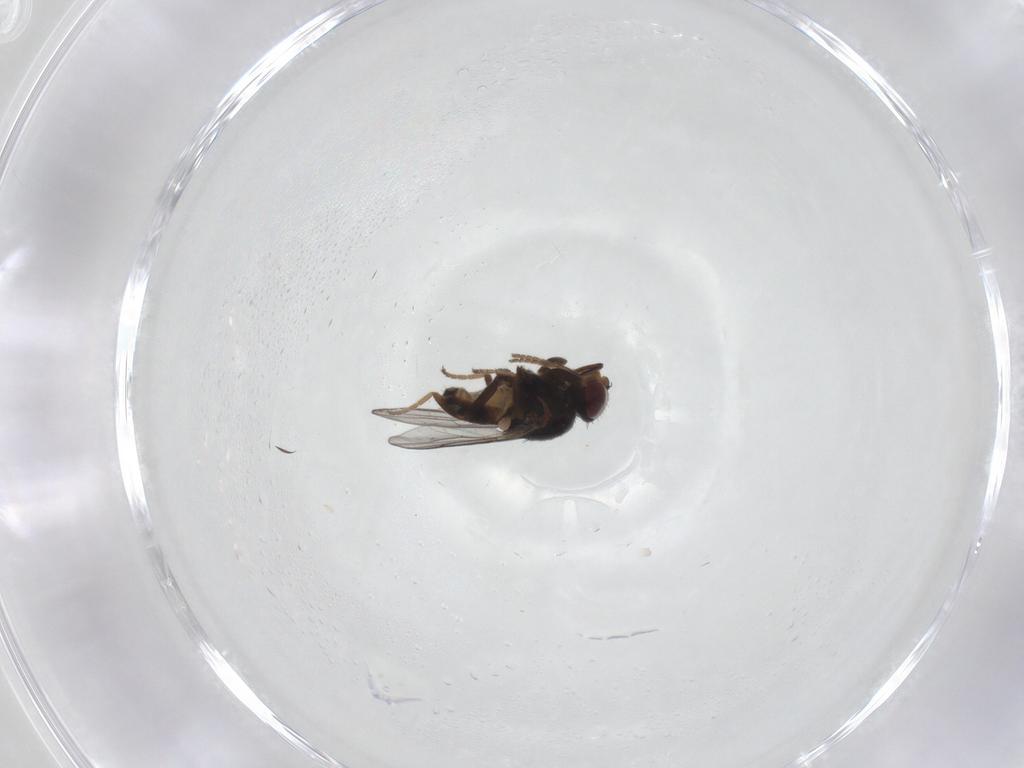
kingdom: Animalia
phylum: Arthropoda
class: Insecta
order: Diptera
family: Chloropidae
